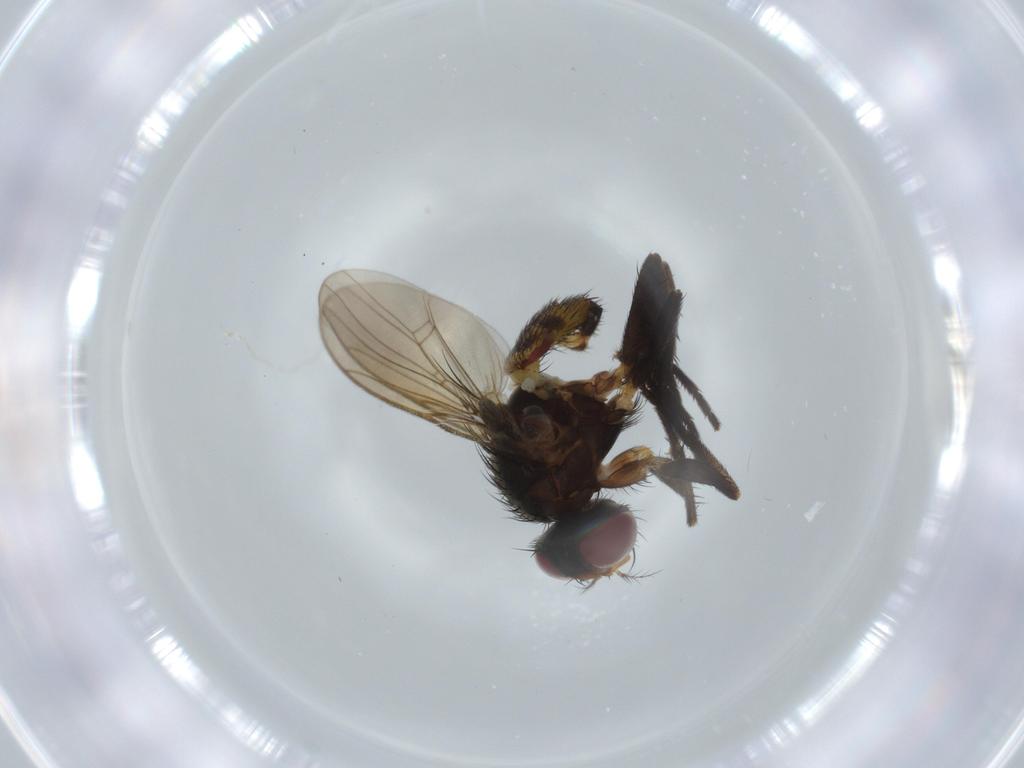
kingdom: Animalia
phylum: Arthropoda
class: Insecta
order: Diptera
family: Anthomyiidae
